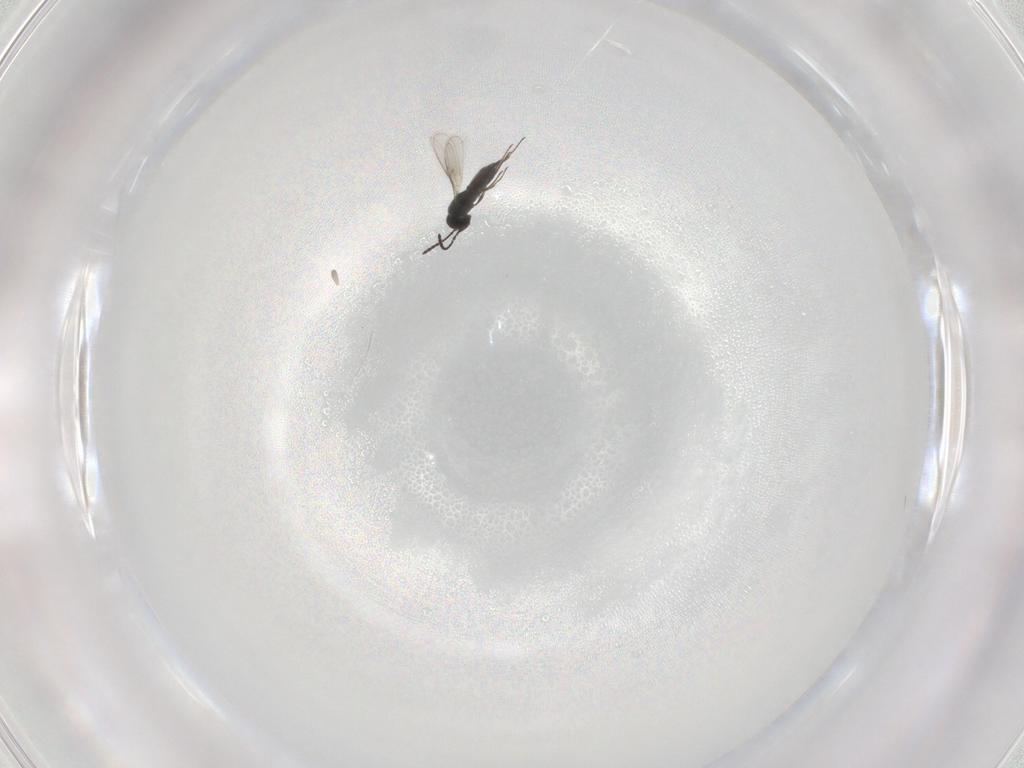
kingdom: Animalia
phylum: Arthropoda
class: Insecta
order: Hymenoptera
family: Scelionidae
